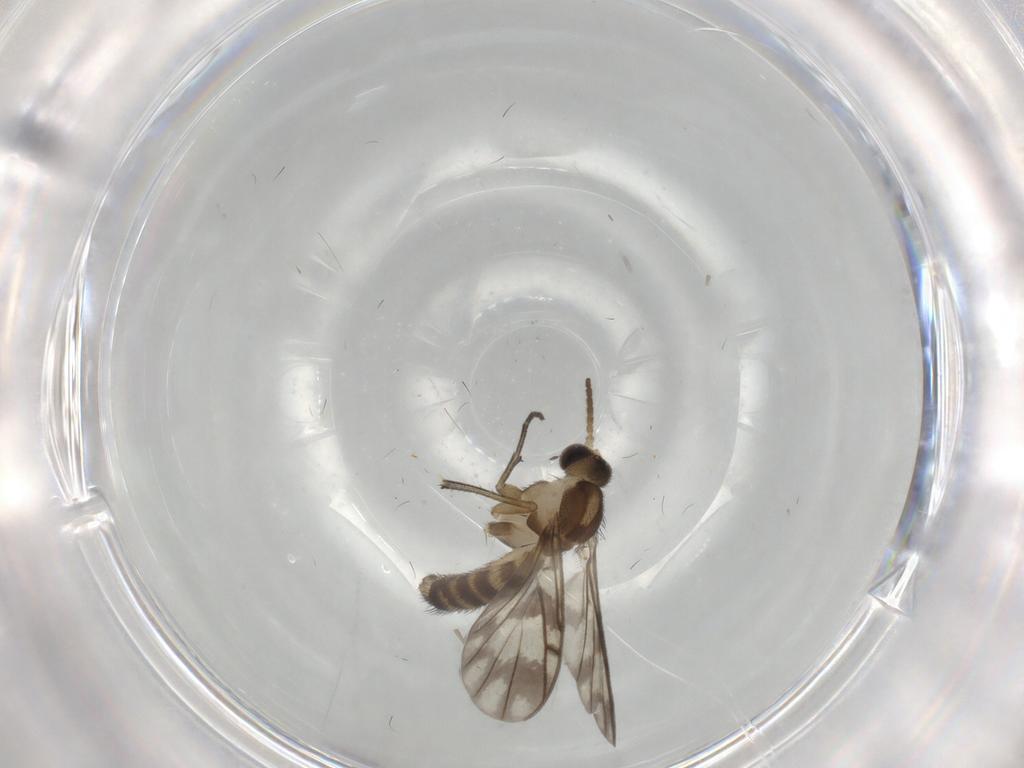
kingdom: Animalia
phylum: Arthropoda
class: Insecta
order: Diptera
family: Keroplatidae
